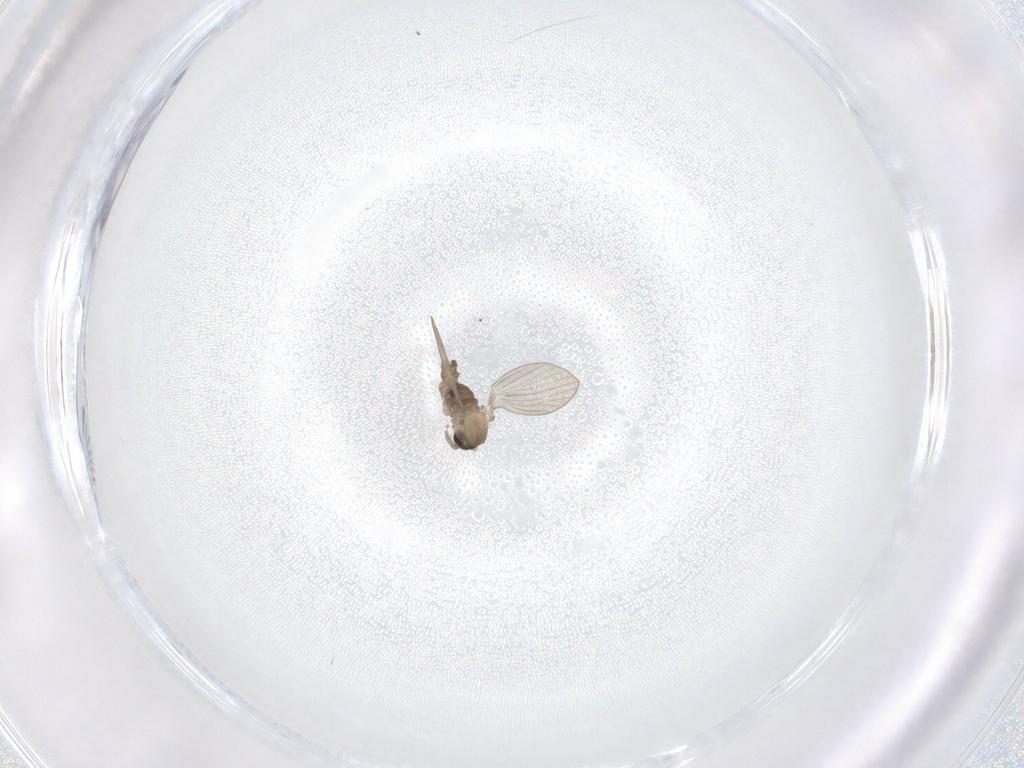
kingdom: Animalia
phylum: Arthropoda
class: Insecta
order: Diptera
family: Psychodidae
